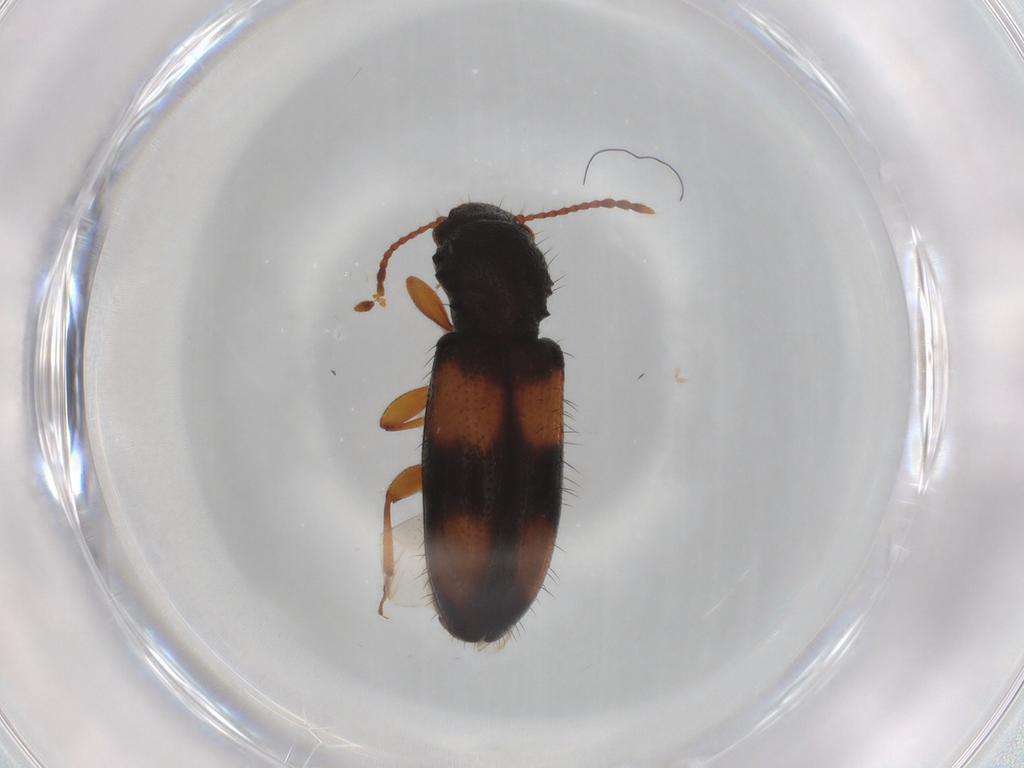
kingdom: Animalia
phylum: Arthropoda
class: Insecta
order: Coleoptera
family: Silvanidae
